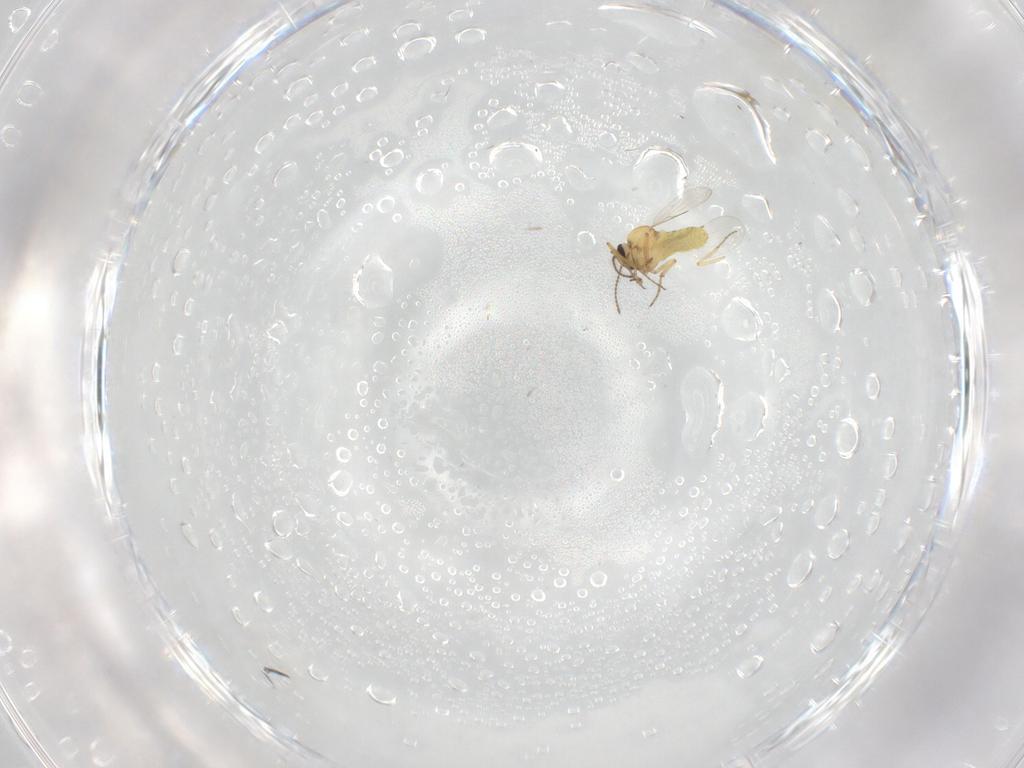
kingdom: Animalia
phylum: Arthropoda
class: Insecta
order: Diptera
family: Ceratopogonidae
